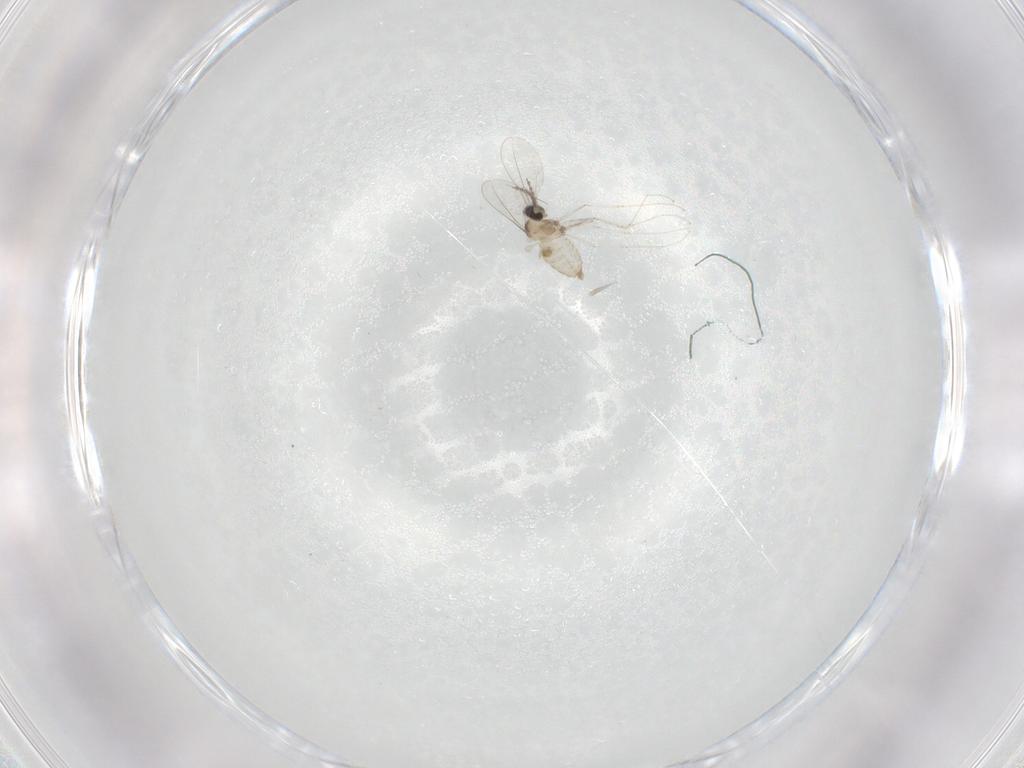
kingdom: Animalia
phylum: Arthropoda
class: Insecta
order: Diptera
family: Cecidomyiidae
